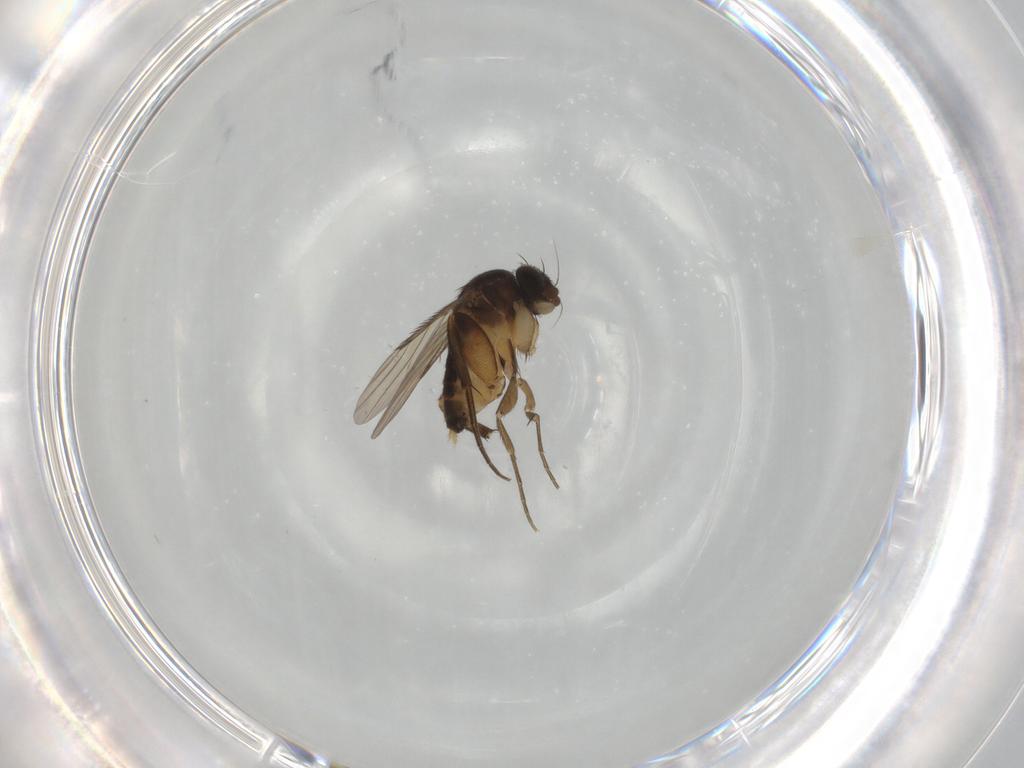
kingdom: Animalia
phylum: Arthropoda
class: Insecta
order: Diptera
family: Phoridae
